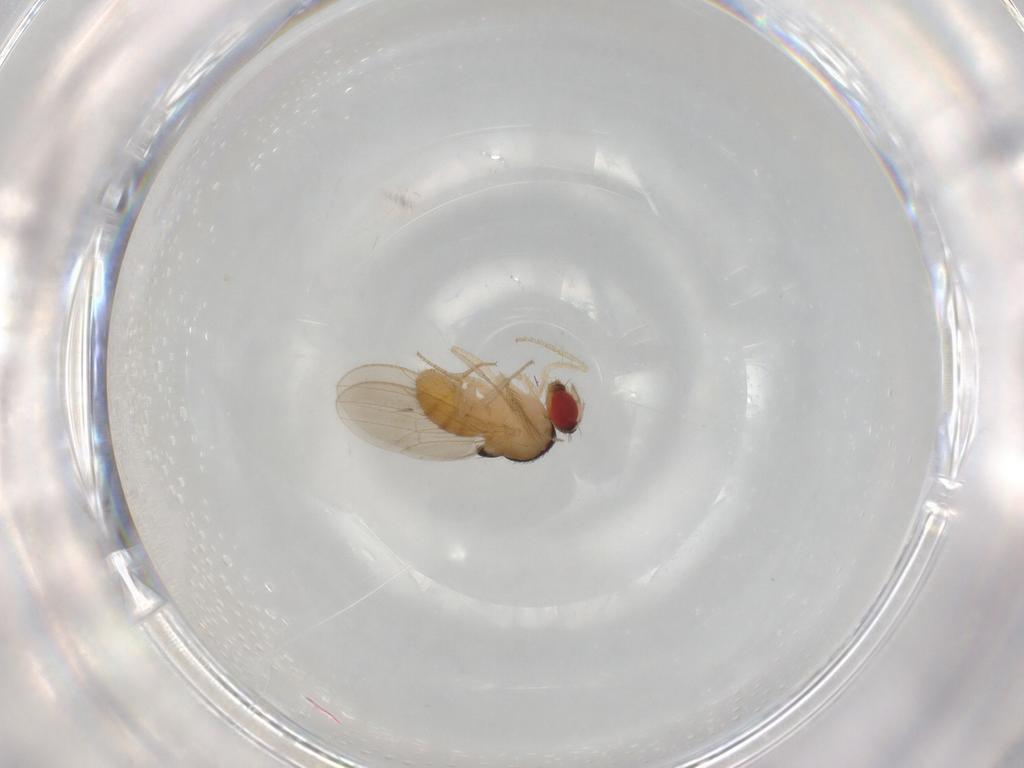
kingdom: Animalia
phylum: Arthropoda
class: Insecta
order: Diptera
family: Drosophilidae
